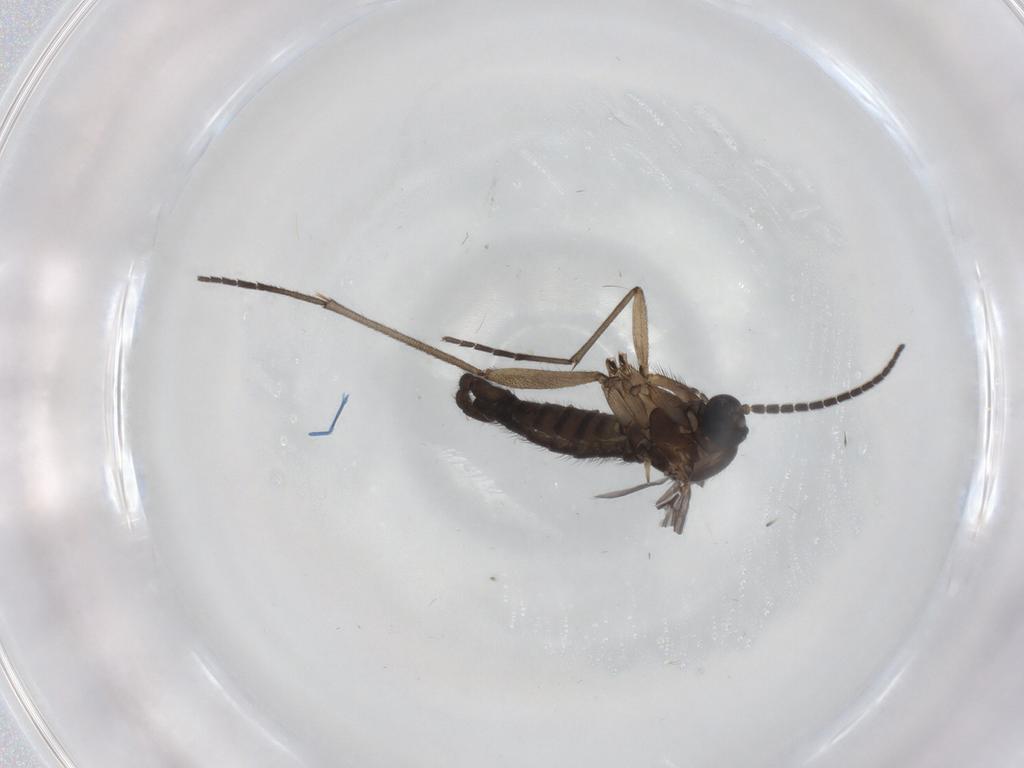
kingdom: Animalia
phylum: Arthropoda
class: Insecta
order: Diptera
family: Sciaridae
